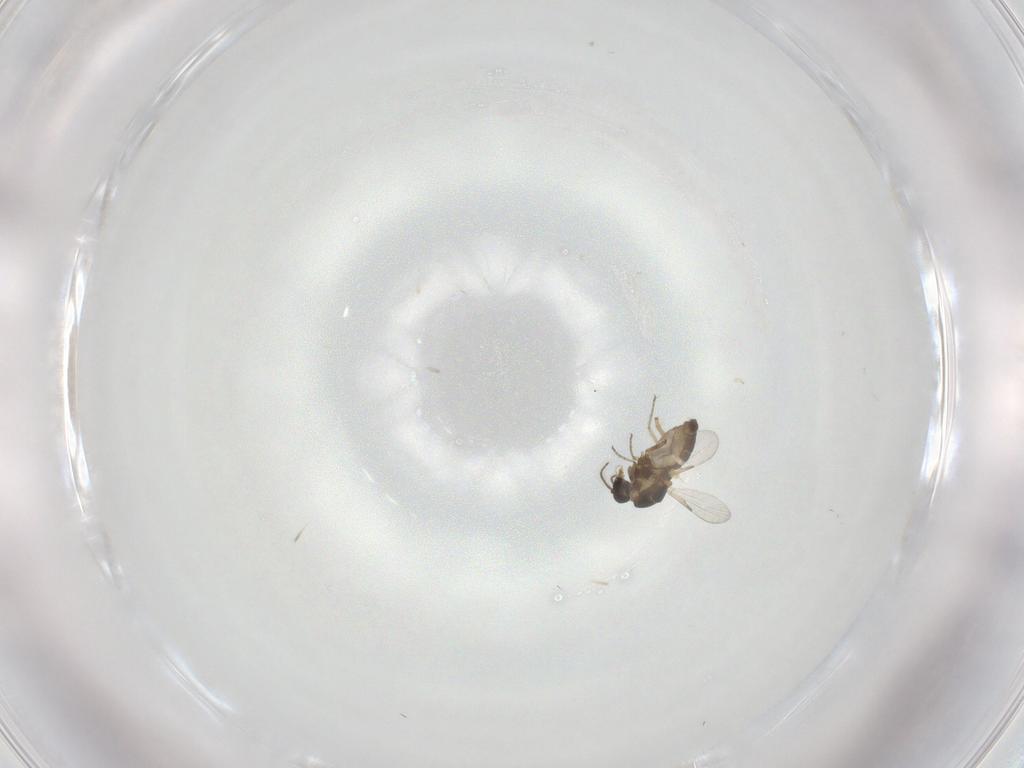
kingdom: Animalia
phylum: Arthropoda
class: Insecta
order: Diptera
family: Ceratopogonidae
